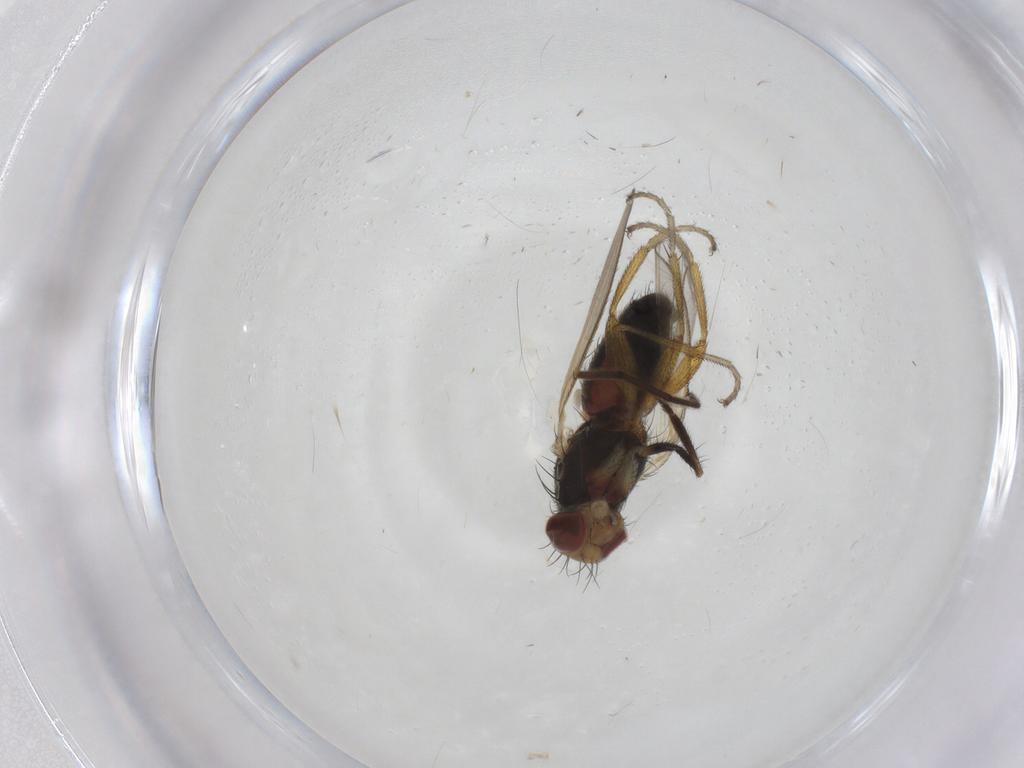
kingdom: Animalia
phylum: Arthropoda
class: Insecta
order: Diptera
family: Heleomyzidae
